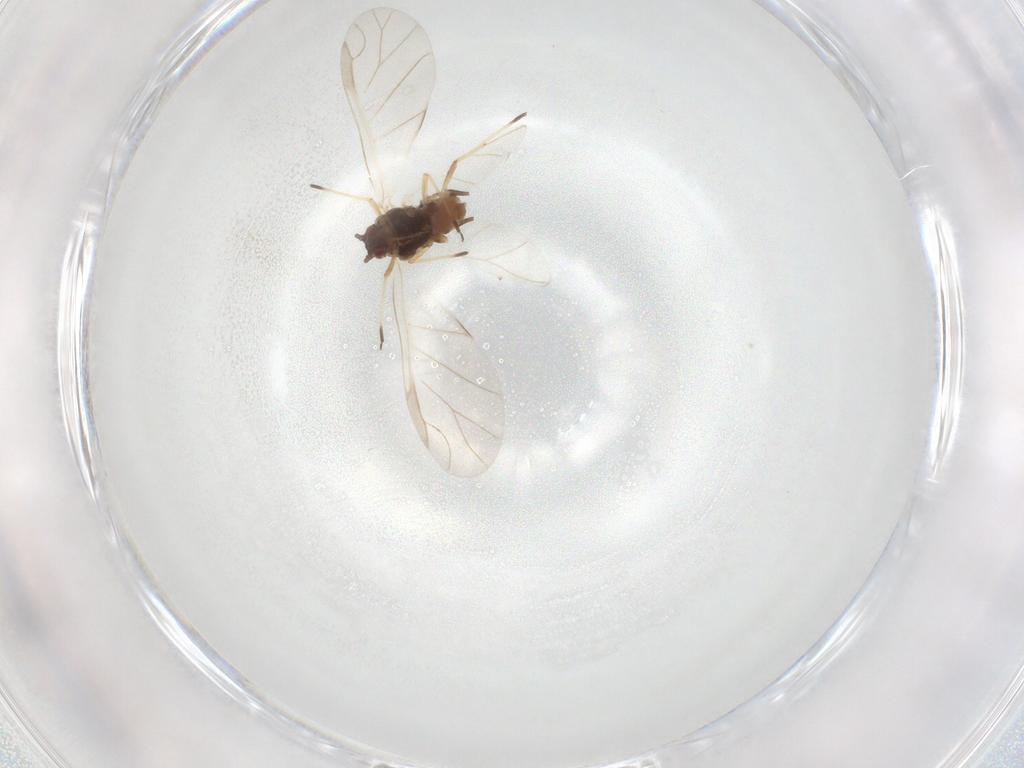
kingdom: Animalia
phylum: Arthropoda
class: Insecta
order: Hemiptera
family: Aphididae
